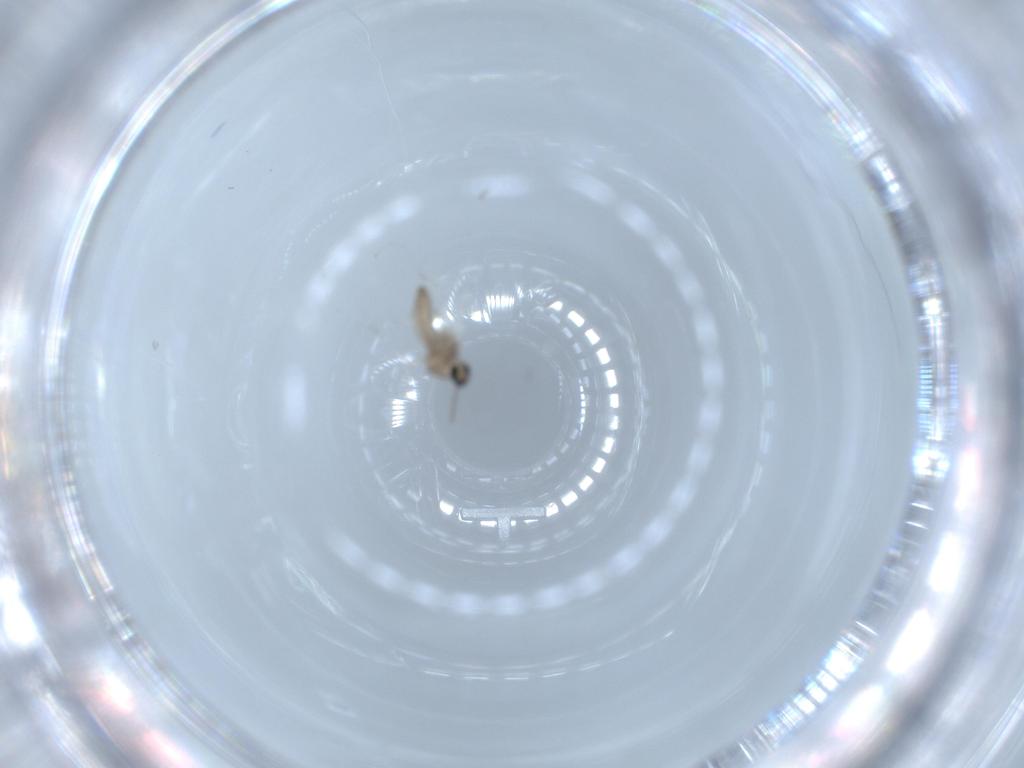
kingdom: Animalia
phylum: Arthropoda
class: Insecta
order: Diptera
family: Cecidomyiidae
